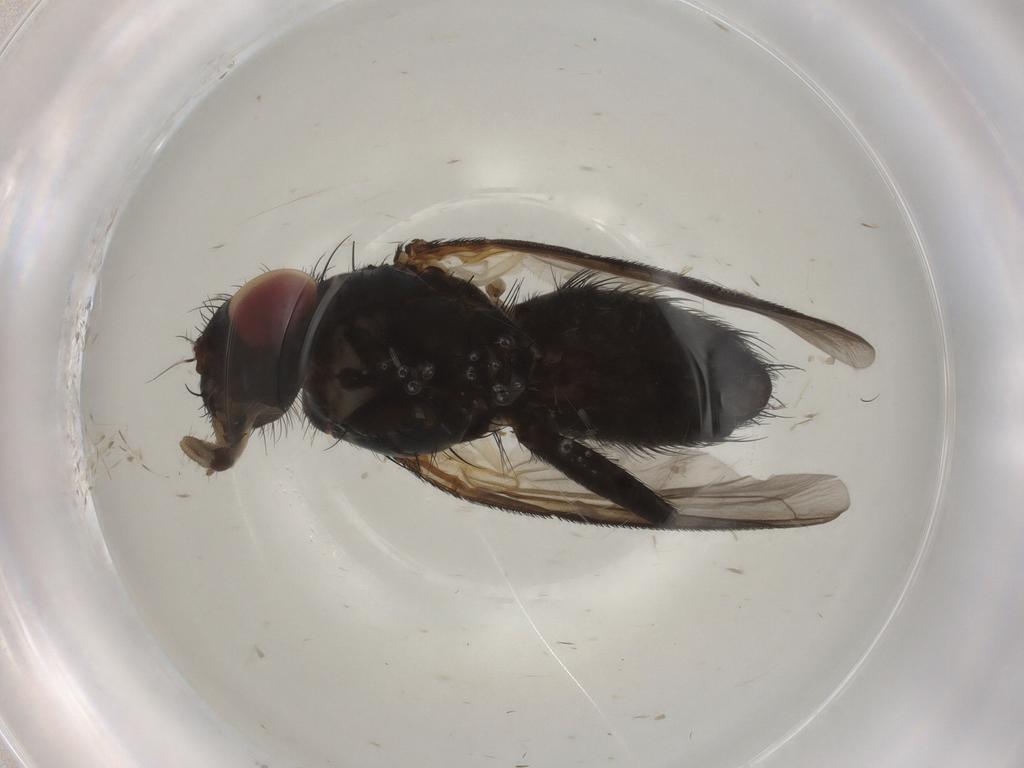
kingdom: Animalia
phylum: Arthropoda
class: Insecta
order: Diptera
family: Tachinidae
